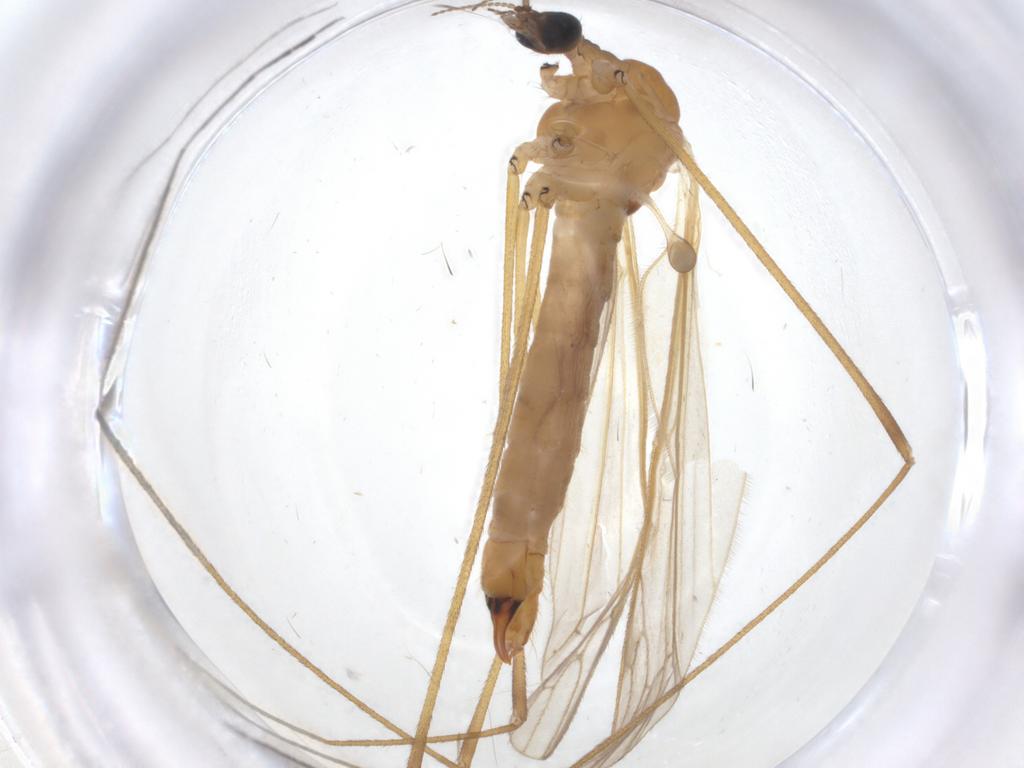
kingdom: Animalia
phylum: Arthropoda
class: Insecta
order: Diptera
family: Limoniidae
